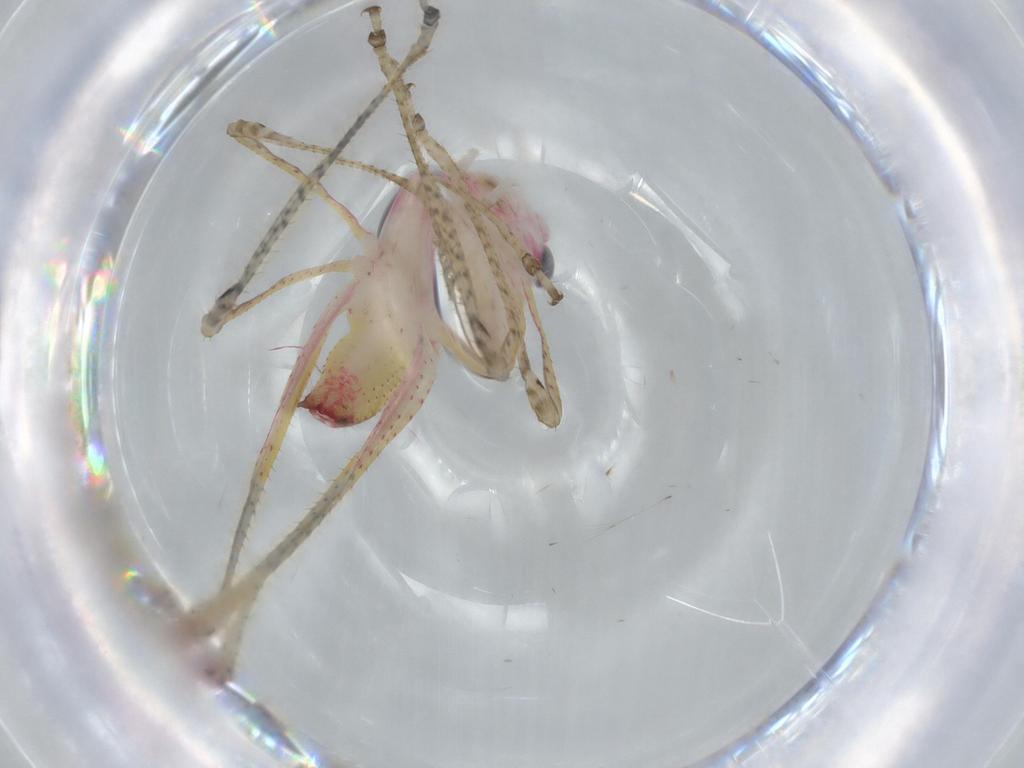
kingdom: Animalia
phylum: Arthropoda
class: Insecta
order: Orthoptera
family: Tettigoniidae
